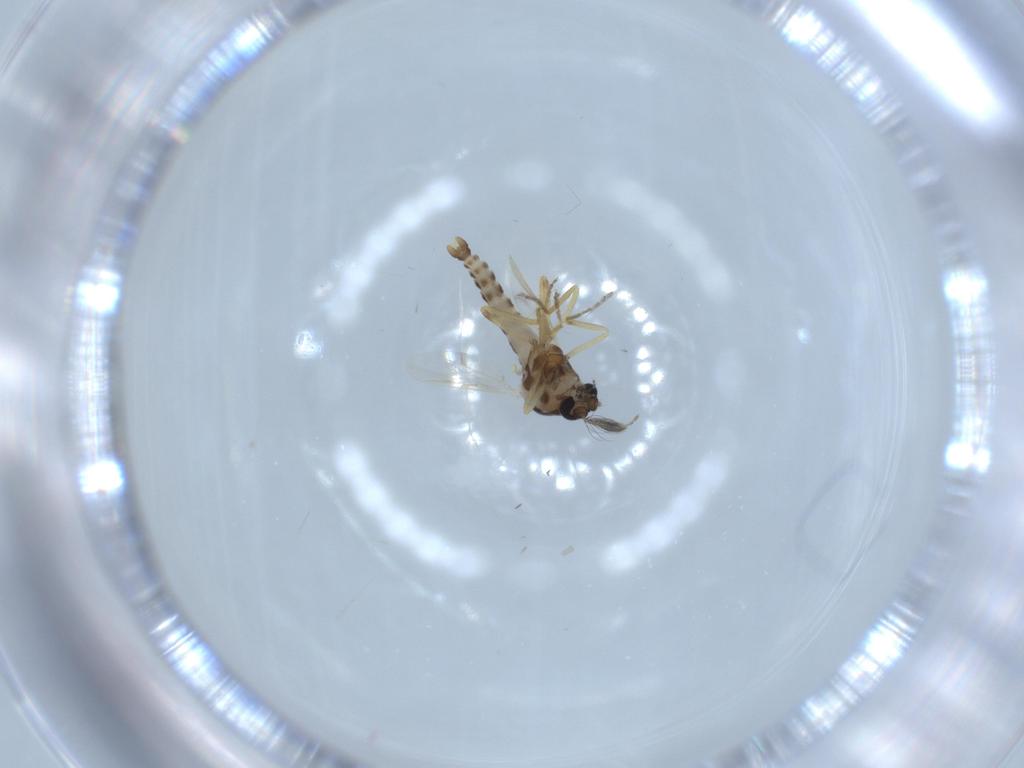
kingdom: Animalia
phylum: Arthropoda
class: Insecta
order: Diptera
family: Ceratopogonidae
